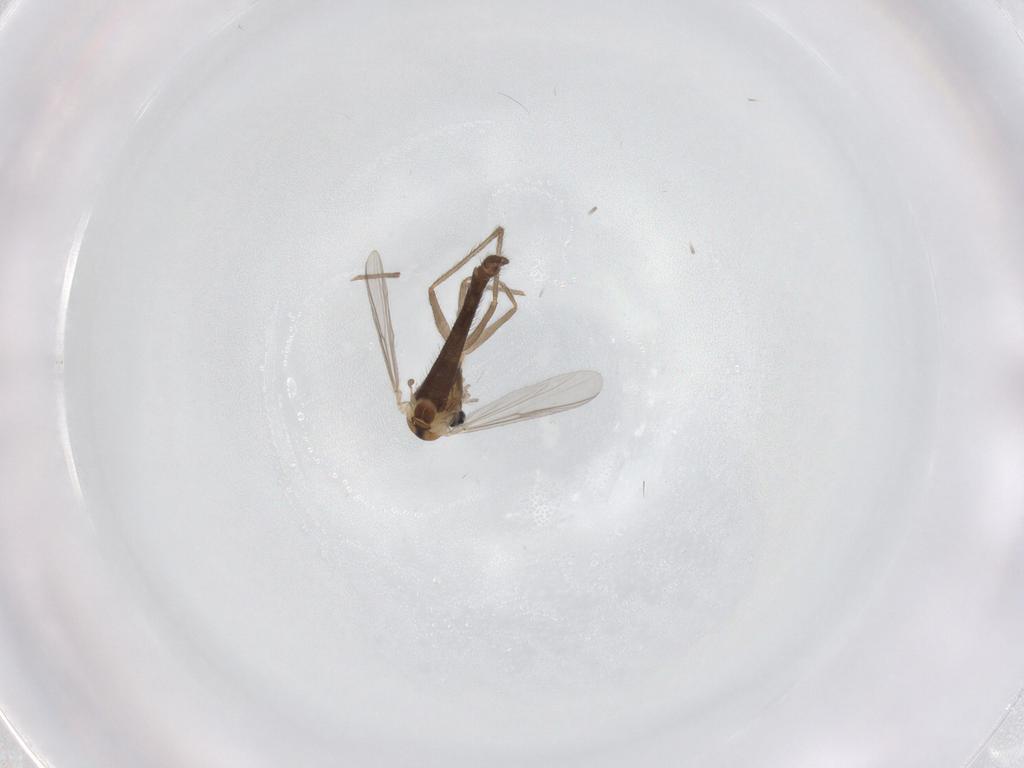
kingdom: Animalia
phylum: Arthropoda
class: Insecta
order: Diptera
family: Chironomidae
